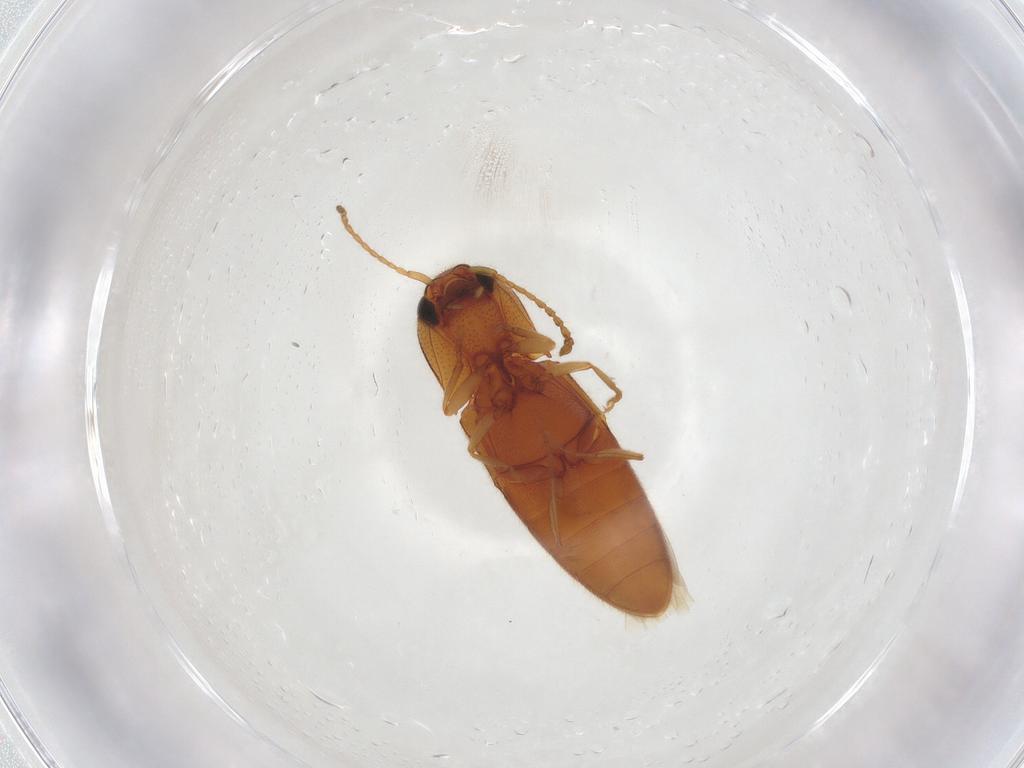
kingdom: Animalia
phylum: Arthropoda
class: Insecta
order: Coleoptera
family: Elateridae
